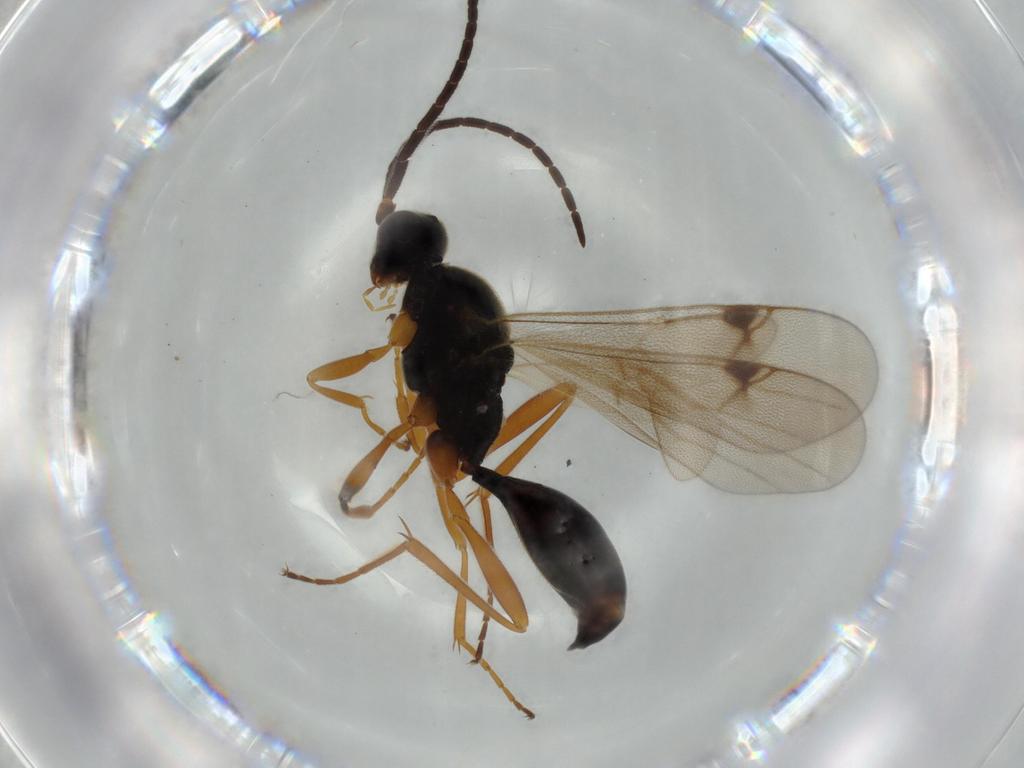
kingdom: Animalia
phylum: Arthropoda
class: Insecta
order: Hymenoptera
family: Proctotrupidae
